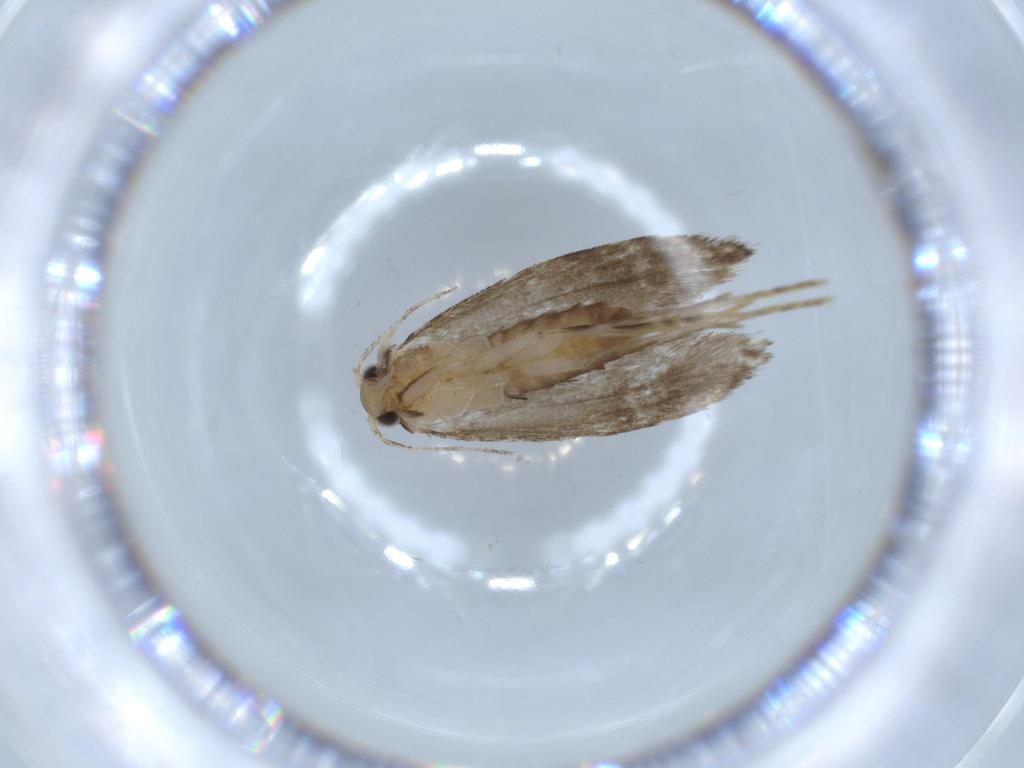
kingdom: Animalia
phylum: Arthropoda
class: Insecta
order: Lepidoptera
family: Tineidae
